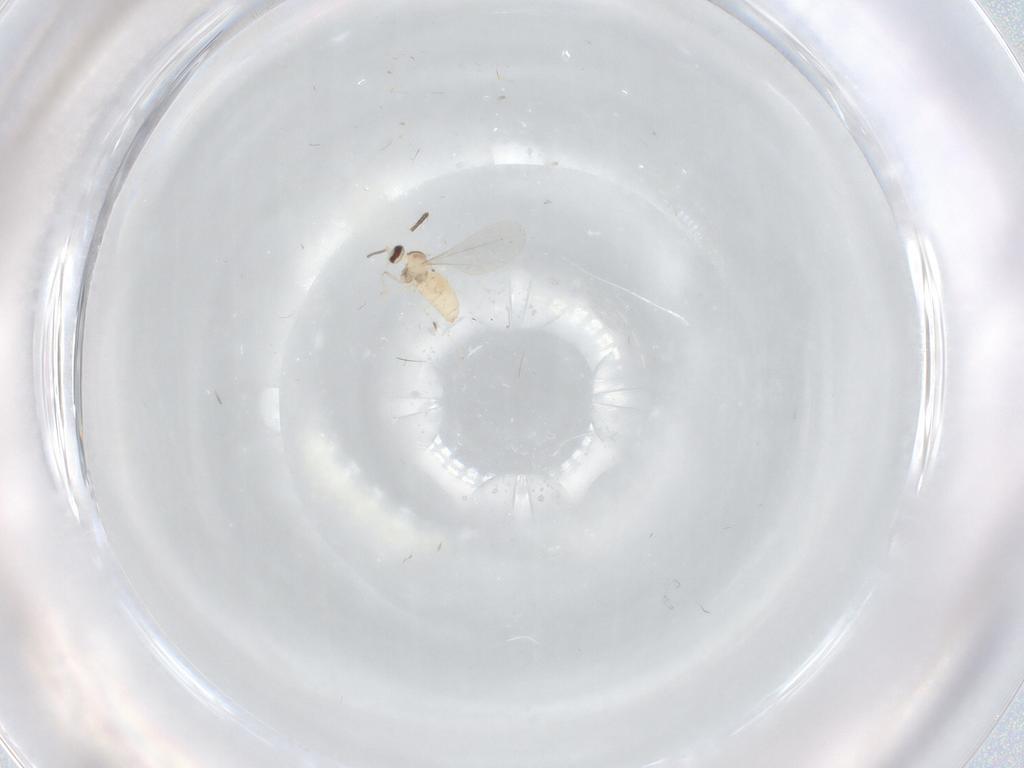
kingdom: Animalia
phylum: Arthropoda
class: Insecta
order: Diptera
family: Cecidomyiidae
